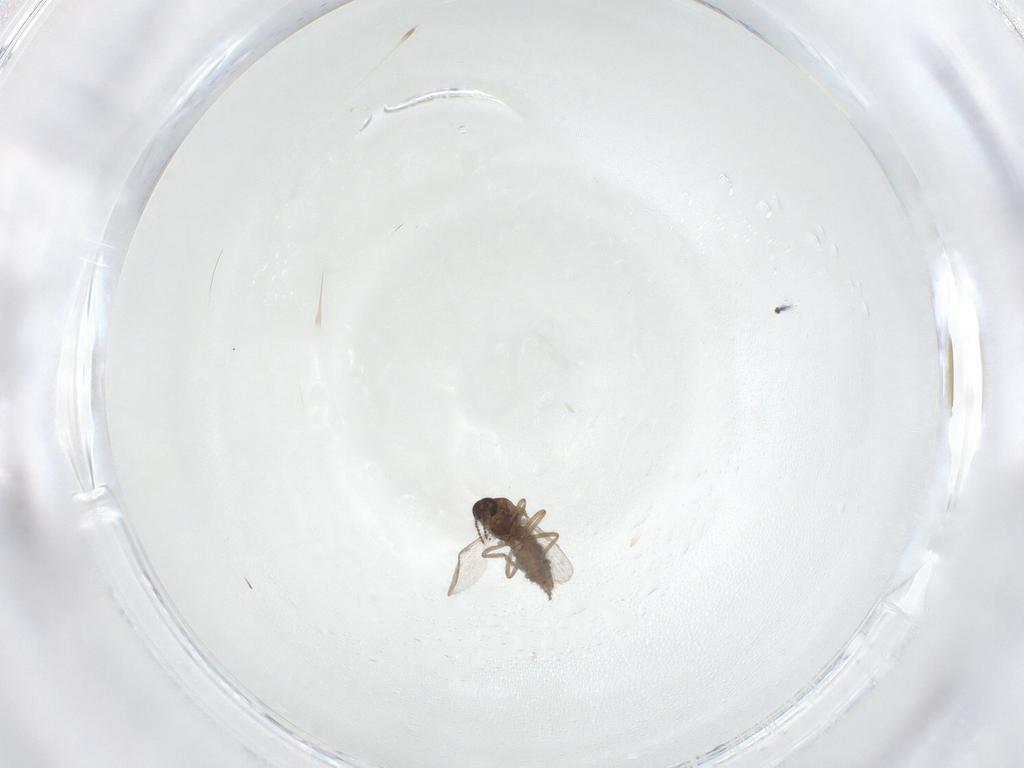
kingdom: Animalia
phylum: Arthropoda
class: Insecta
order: Diptera
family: Ceratopogonidae
